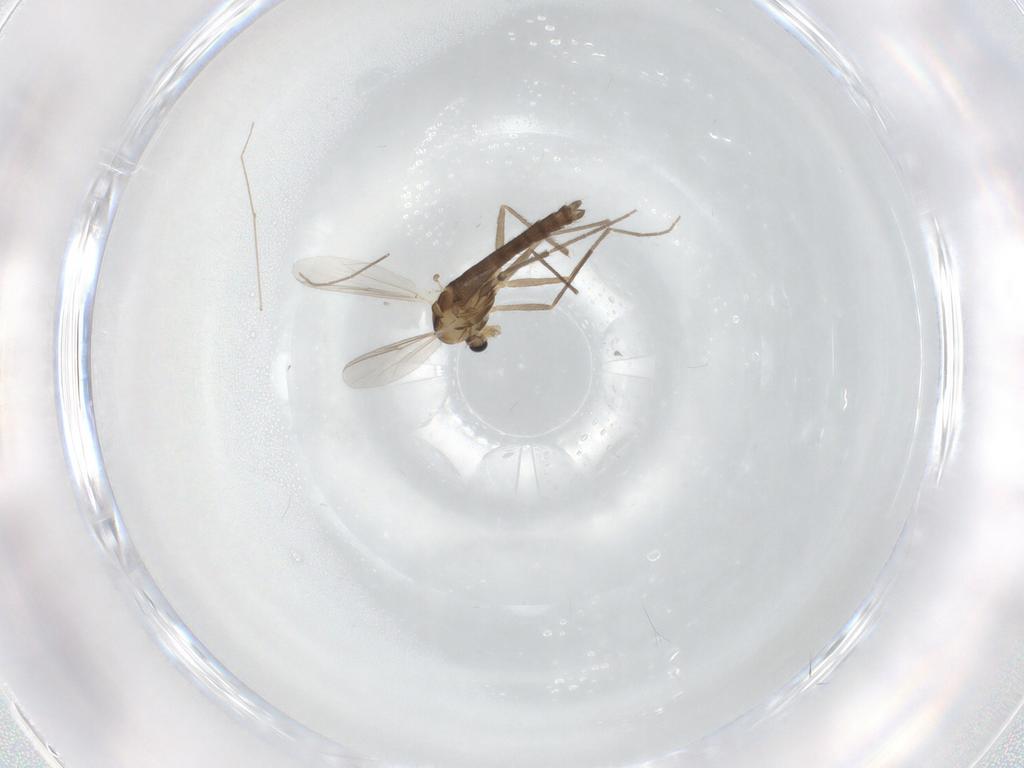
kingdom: Animalia
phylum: Arthropoda
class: Insecta
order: Diptera
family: Chironomidae
